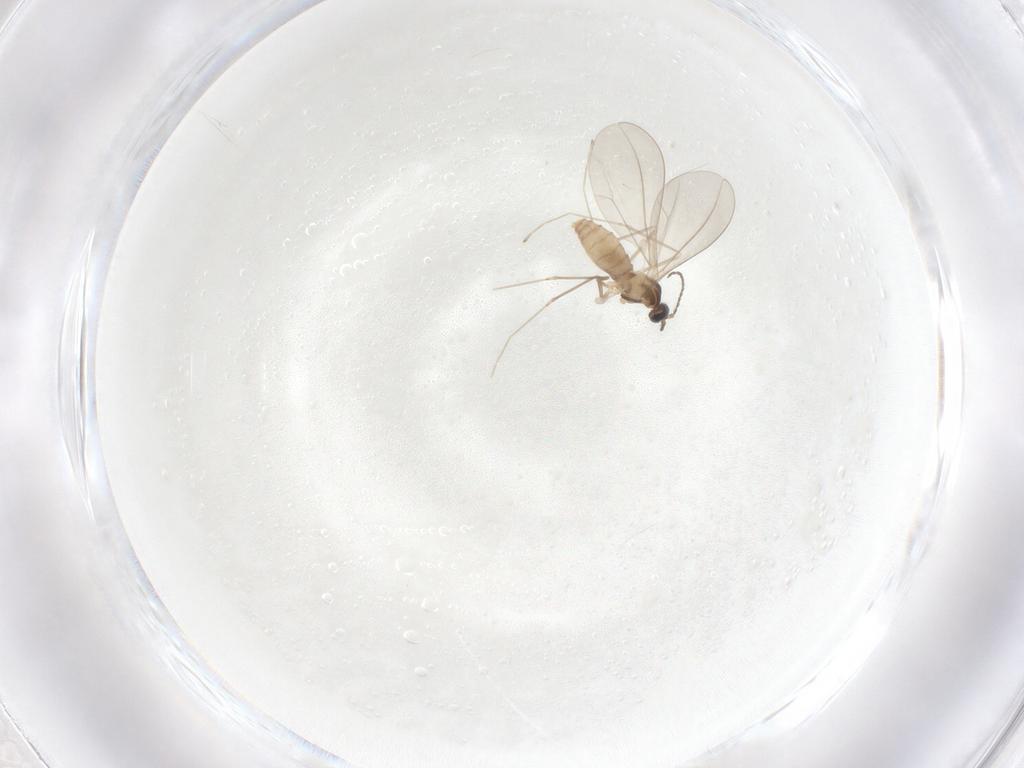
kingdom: Animalia
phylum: Arthropoda
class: Insecta
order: Diptera
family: Cecidomyiidae
